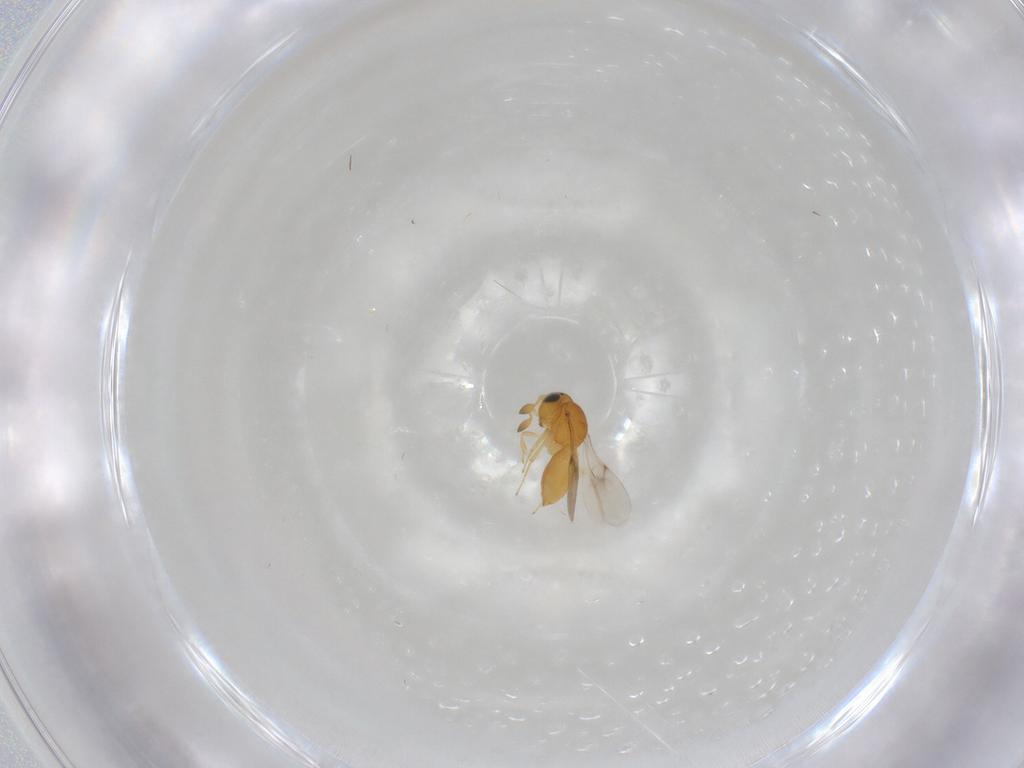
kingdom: Animalia
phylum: Arthropoda
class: Insecta
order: Hymenoptera
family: Scelionidae
